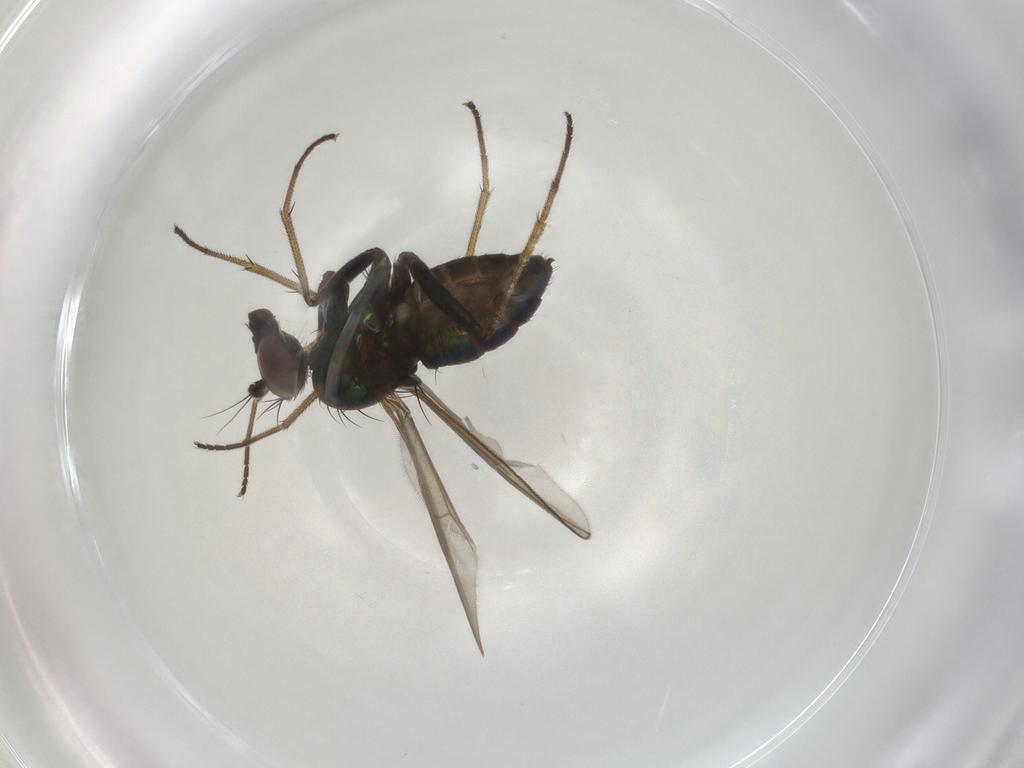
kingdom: Animalia
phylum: Arthropoda
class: Insecta
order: Diptera
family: Dolichopodidae
